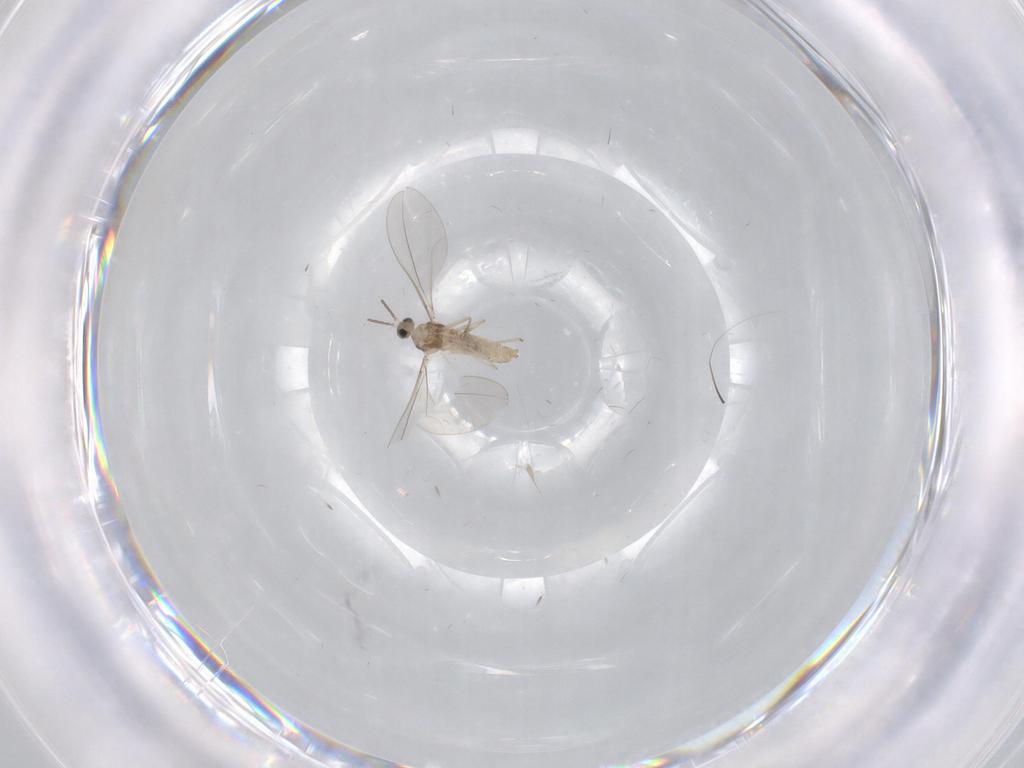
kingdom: Animalia
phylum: Arthropoda
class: Insecta
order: Diptera
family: Cecidomyiidae
